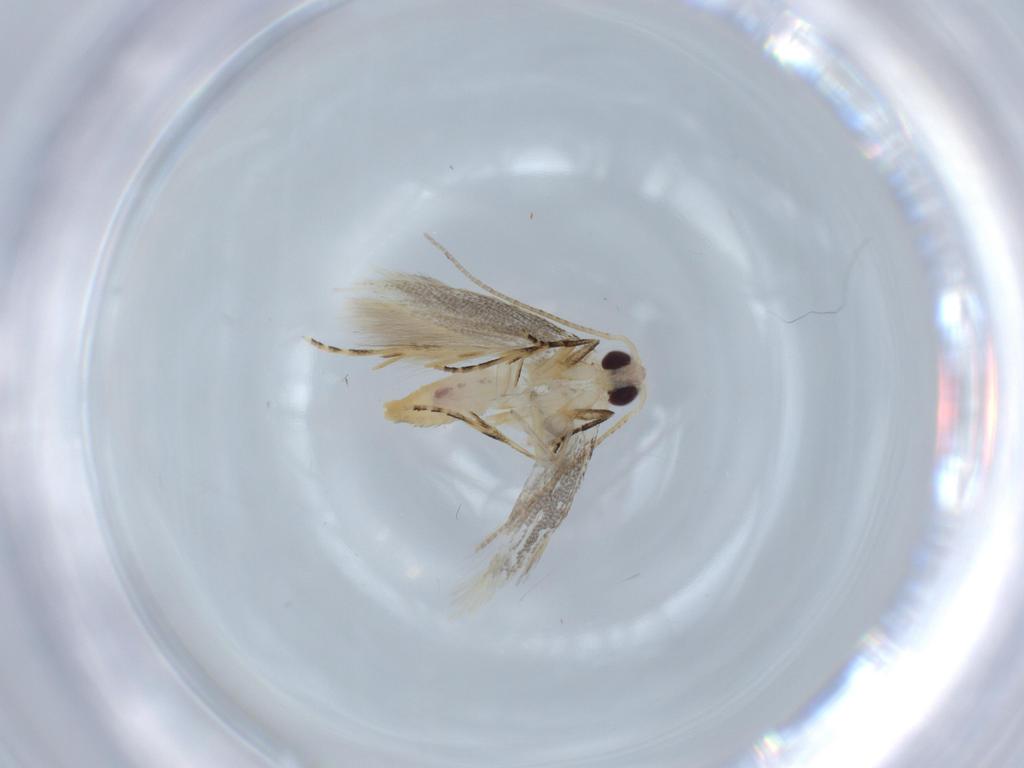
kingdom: Animalia
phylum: Arthropoda
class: Insecta
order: Lepidoptera
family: Bucculatricidae
